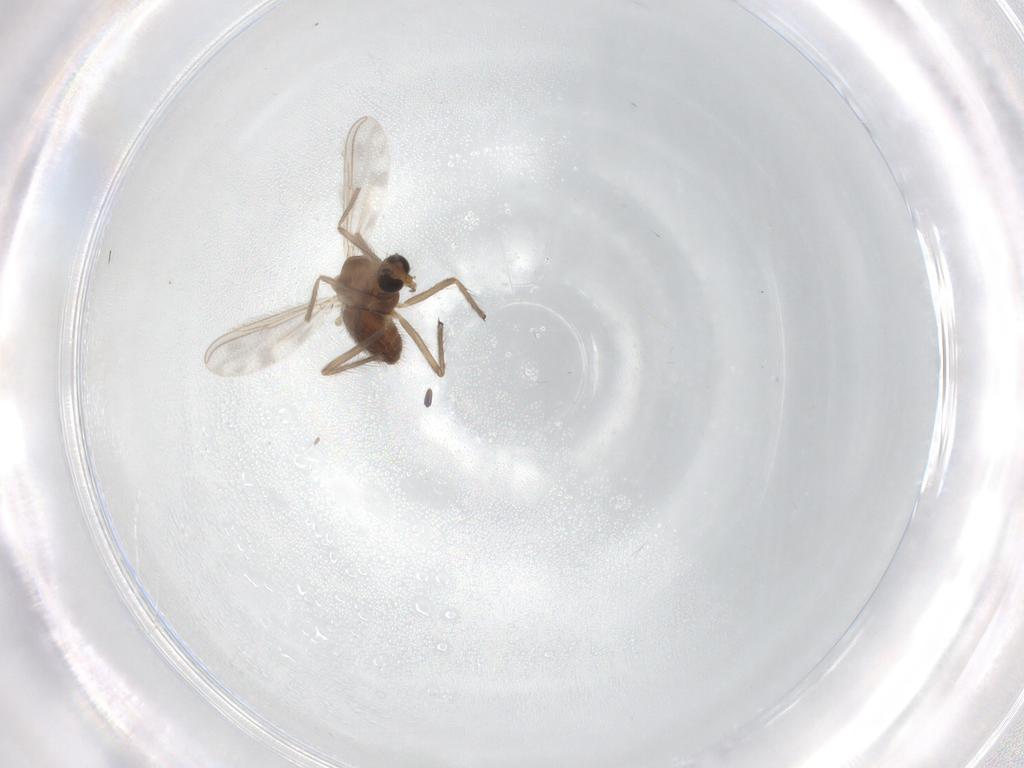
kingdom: Animalia
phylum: Arthropoda
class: Insecta
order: Diptera
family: Chironomidae
